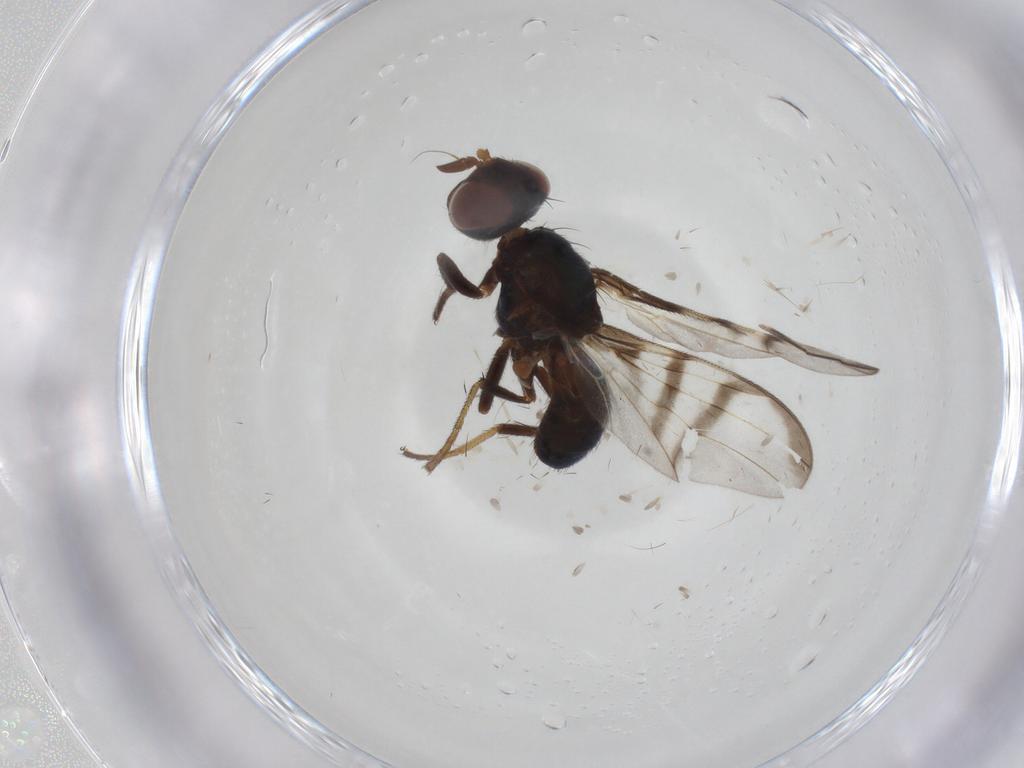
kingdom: Animalia
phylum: Arthropoda
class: Insecta
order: Diptera
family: Platystomatidae
